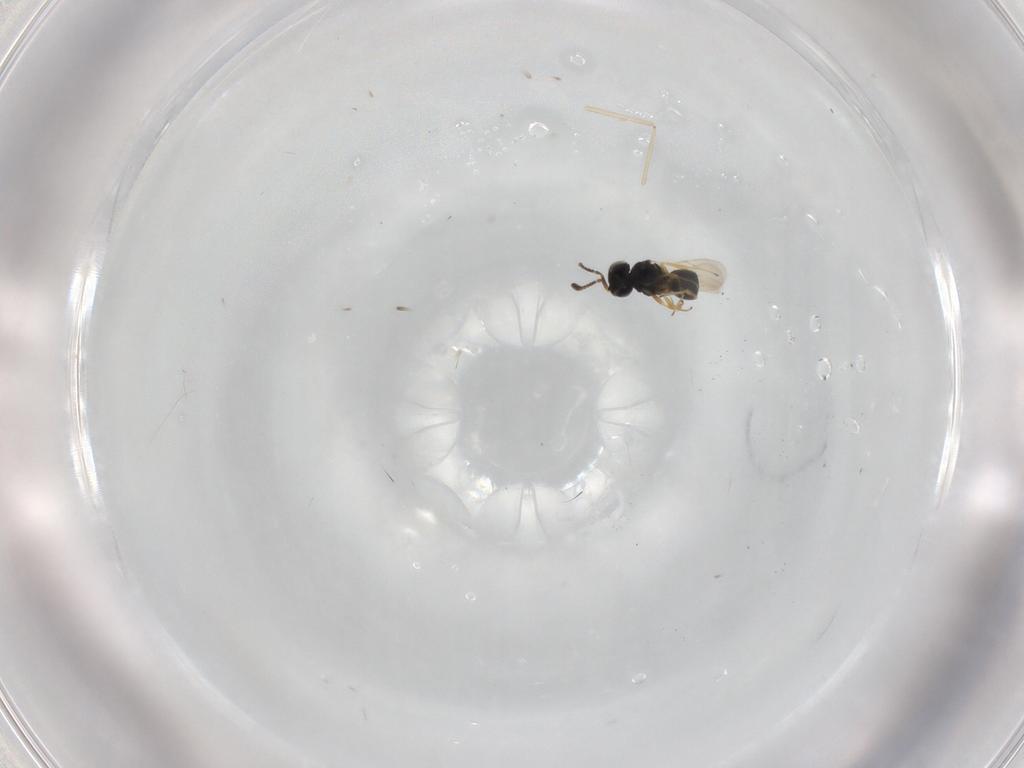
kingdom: Animalia
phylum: Arthropoda
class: Insecta
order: Hymenoptera
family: Scelionidae
